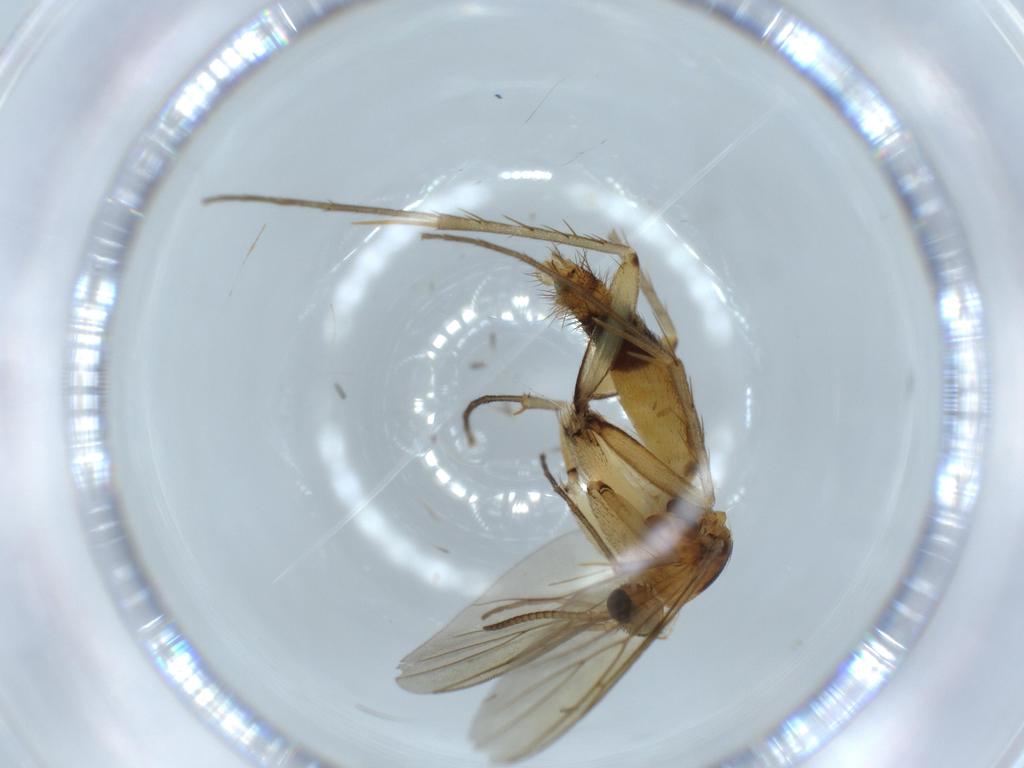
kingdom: Animalia
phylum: Arthropoda
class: Insecta
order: Diptera
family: Mycetophilidae
